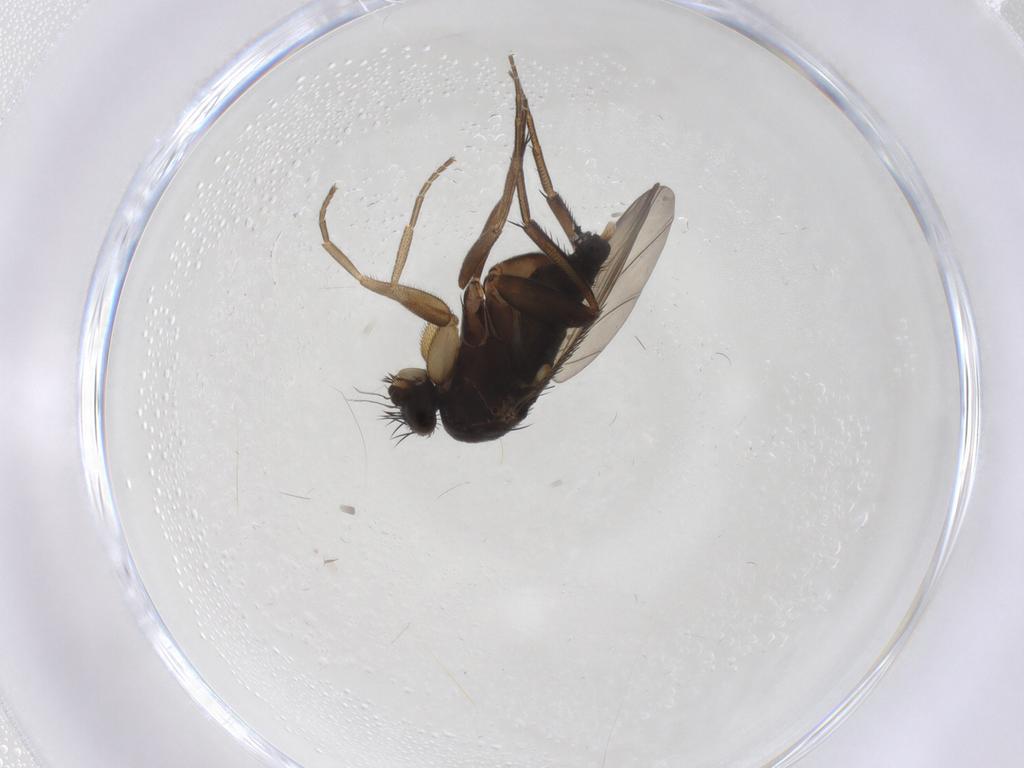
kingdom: Animalia
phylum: Arthropoda
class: Insecta
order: Diptera
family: Phoridae
